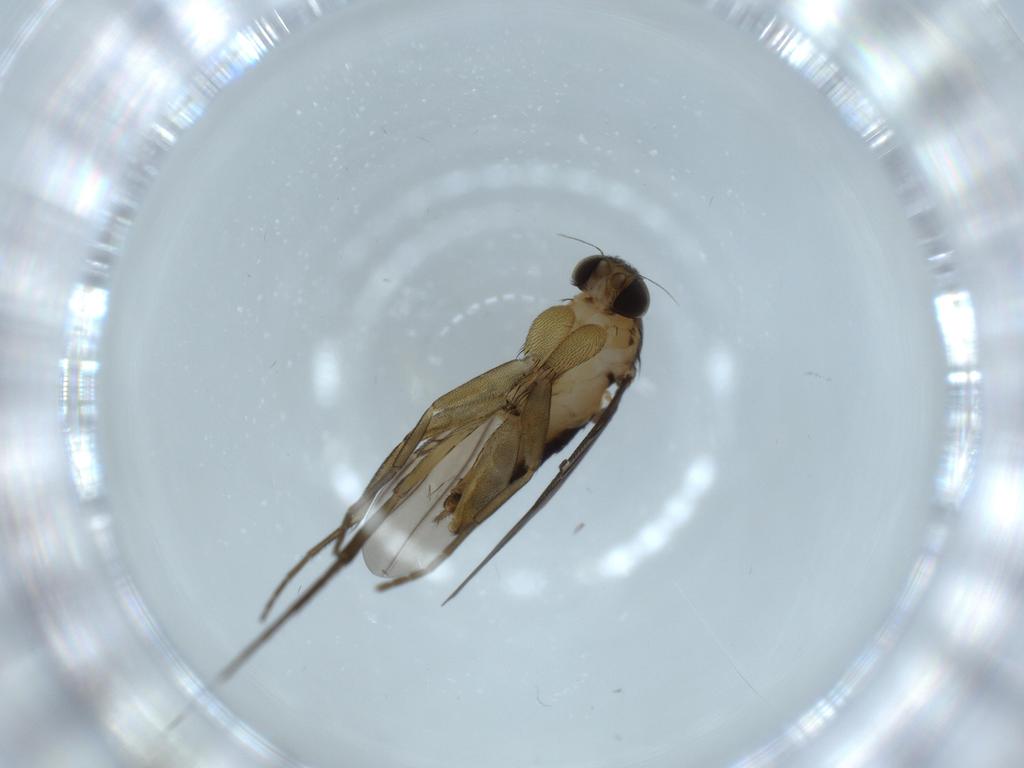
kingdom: Animalia
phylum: Arthropoda
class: Insecta
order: Diptera
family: Phoridae
